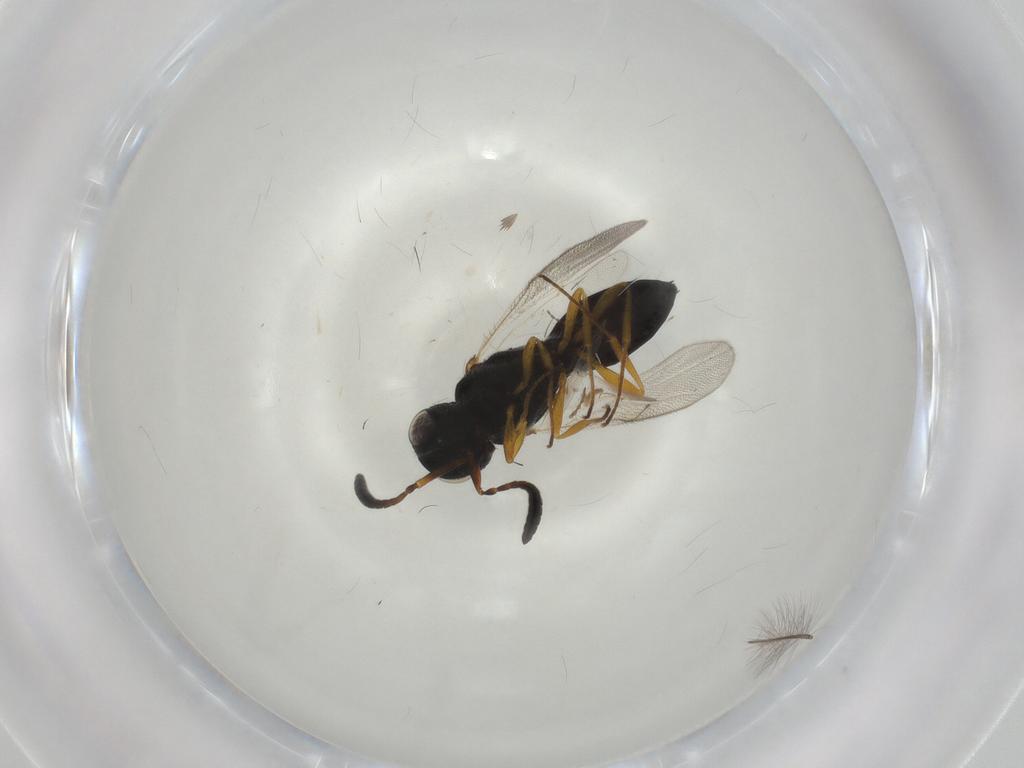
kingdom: Animalia
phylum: Arthropoda
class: Insecta
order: Hymenoptera
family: Scelionidae
